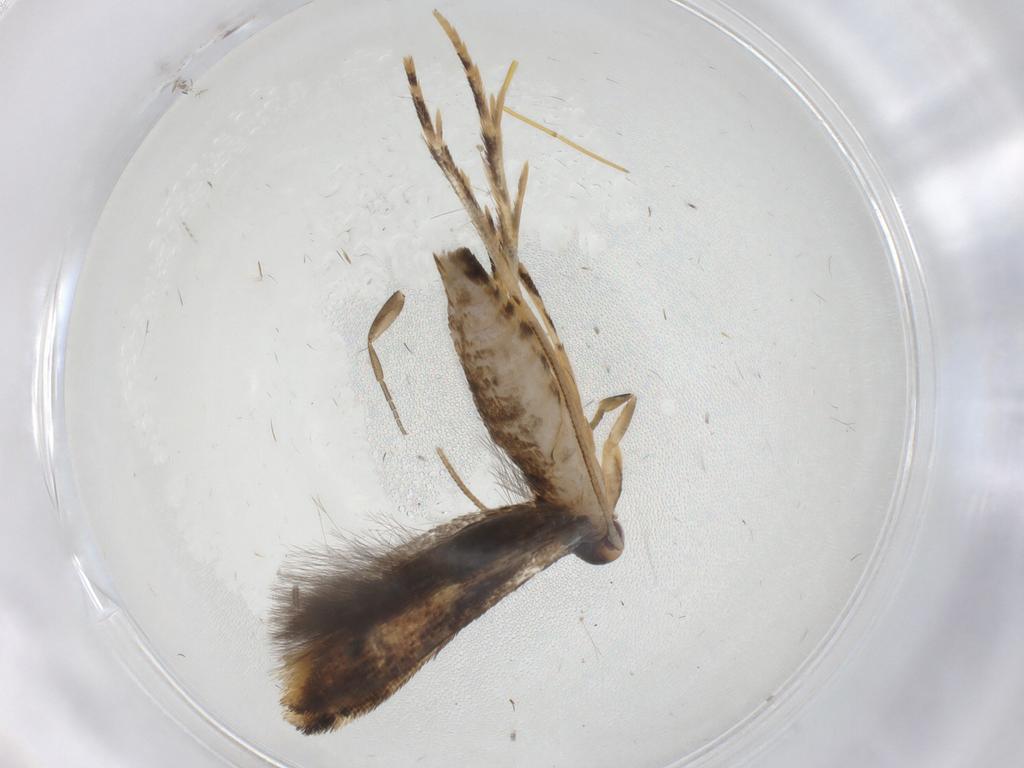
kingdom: Animalia
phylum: Arthropoda
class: Insecta
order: Lepidoptera
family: Momphidae
